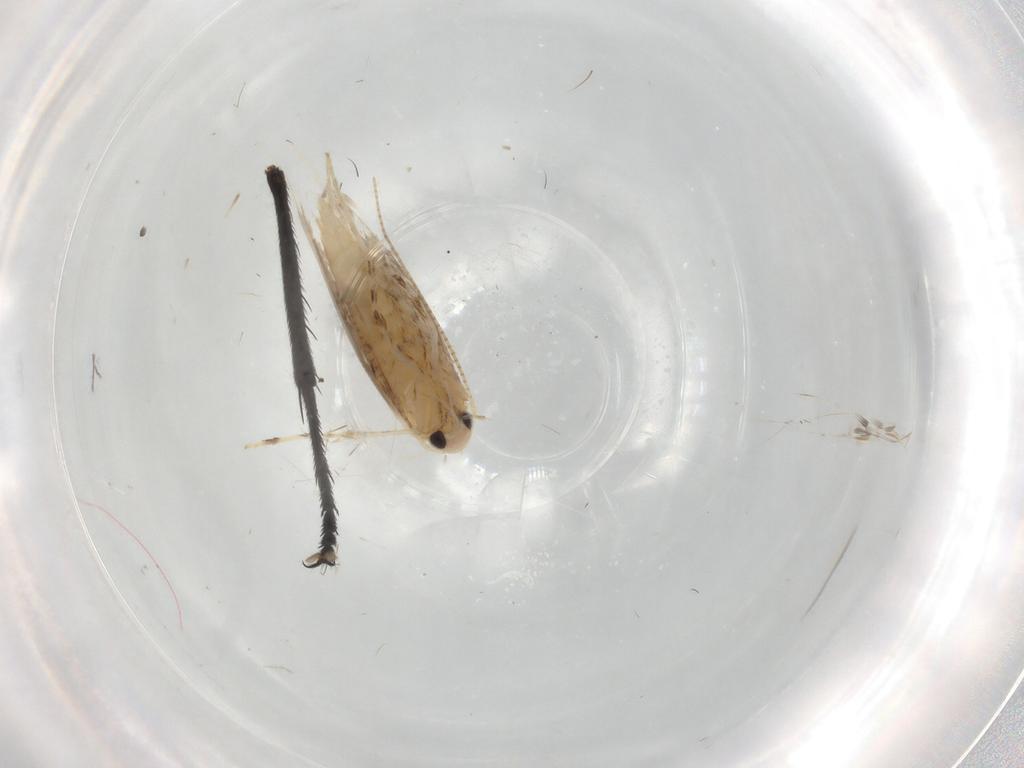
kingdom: Animalia
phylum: Arthropoda
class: Insecta
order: Lepidoptera
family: Gracillariidae
